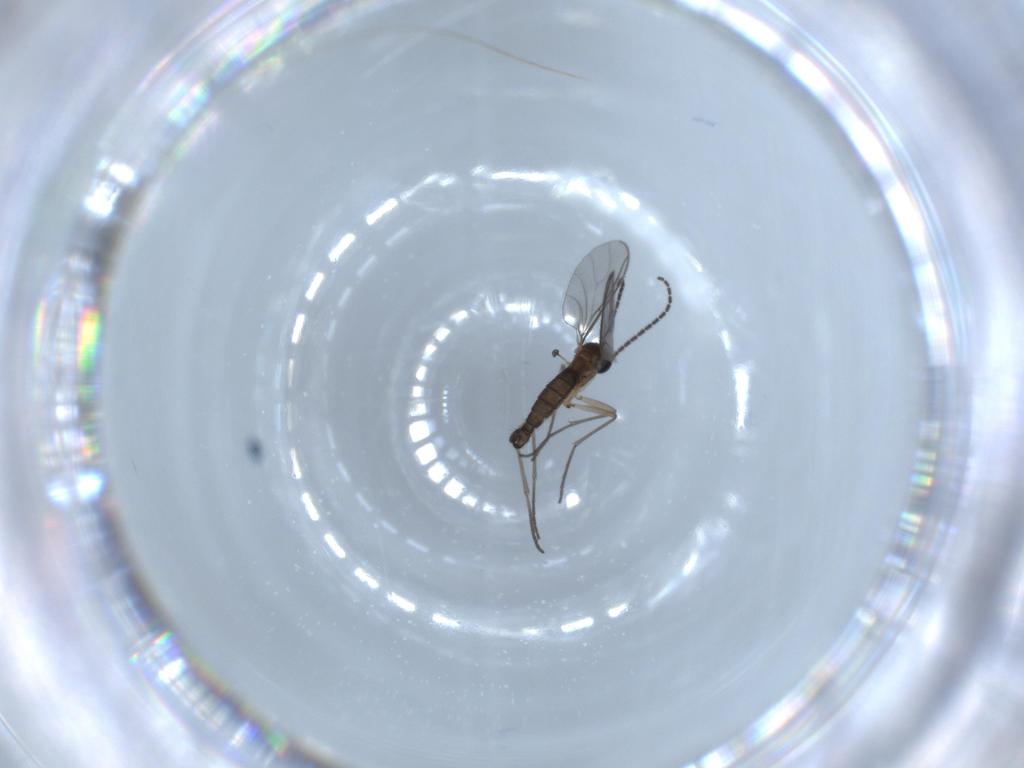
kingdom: Animalia
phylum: Arthropoda
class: Insecta
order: Diptera
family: Sciaridae
